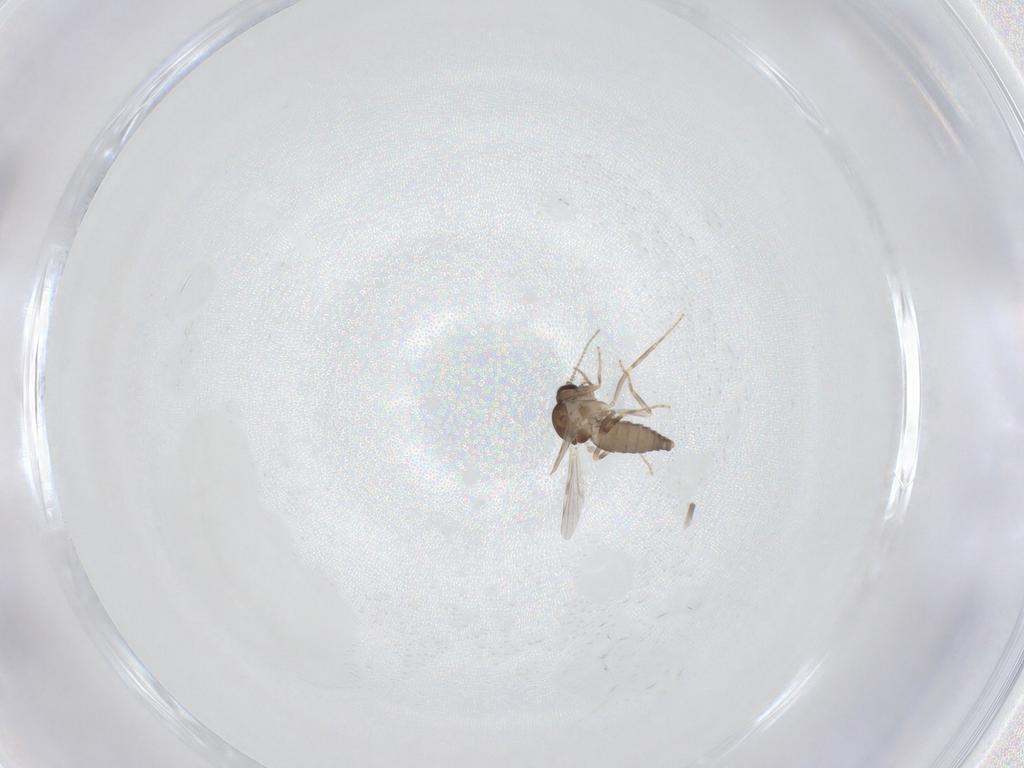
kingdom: Animalia
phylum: Arthropoda
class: Insecta
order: Diptera
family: Ceratopogonidae
